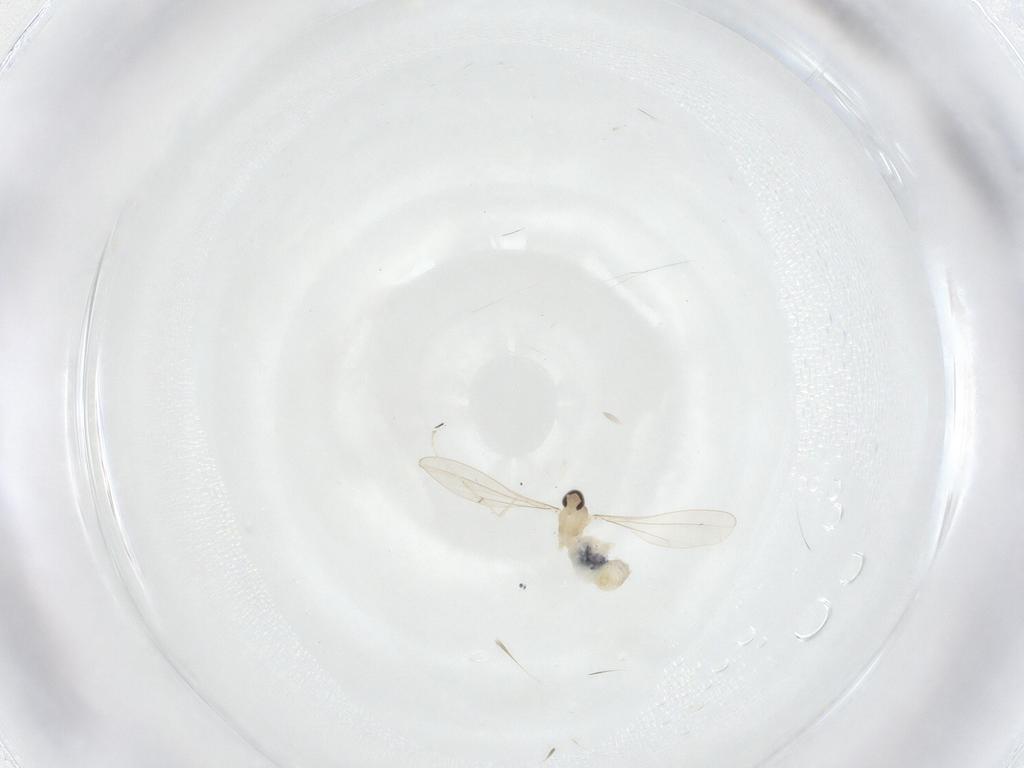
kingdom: Animalia
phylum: Arthropoda
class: Insecta
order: Diptera
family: Cecidomyiidae
